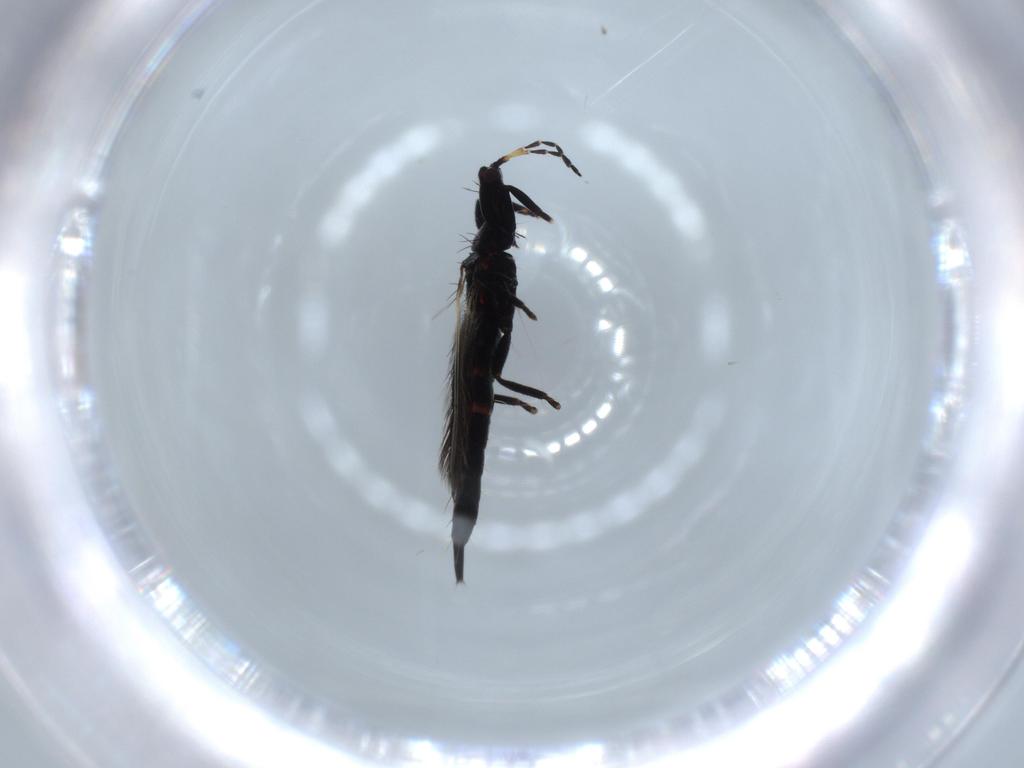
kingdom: Animalia
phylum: Arthropoda
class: Insecta
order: Thysanoptera
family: Phlaeothripidae
